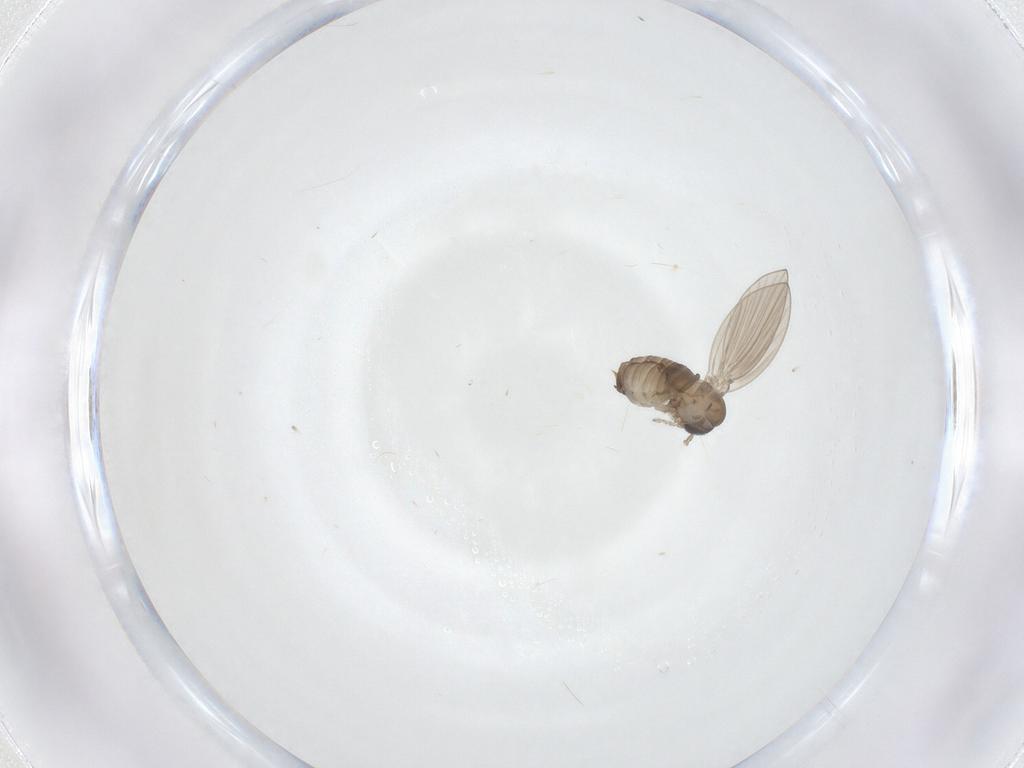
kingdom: Animalia
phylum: Arthropoda
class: Insecta
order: Diptera
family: Psychodidae
